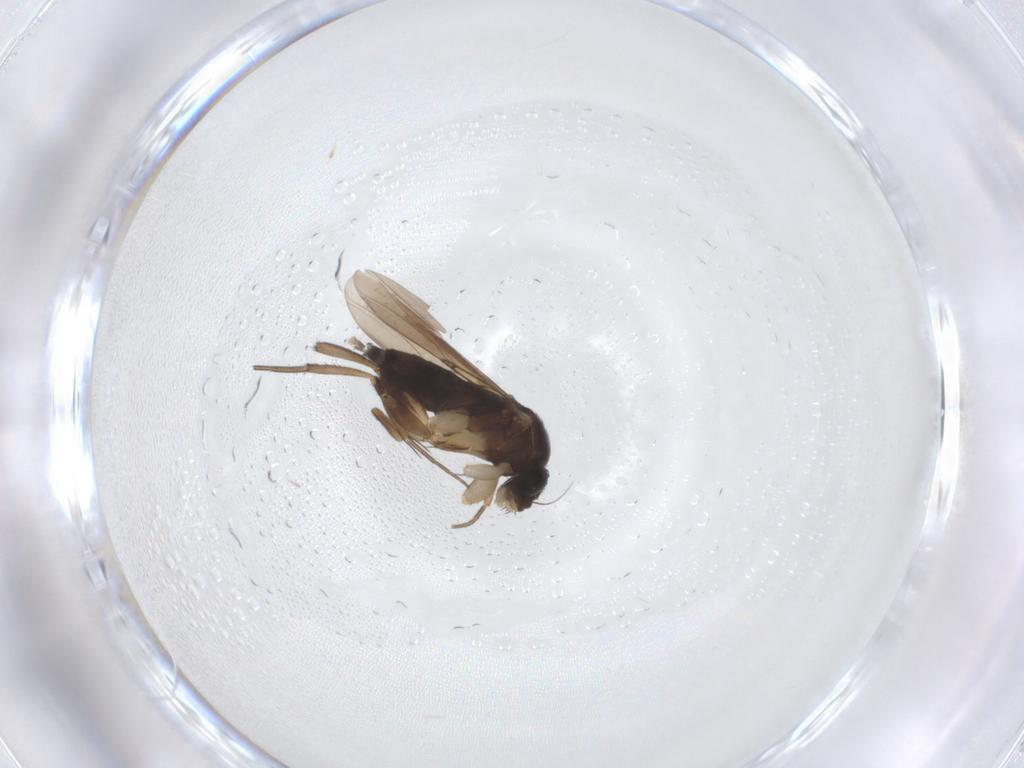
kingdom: Animalia
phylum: Arthropoda
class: Insecta
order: Diptera
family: Phoridae
